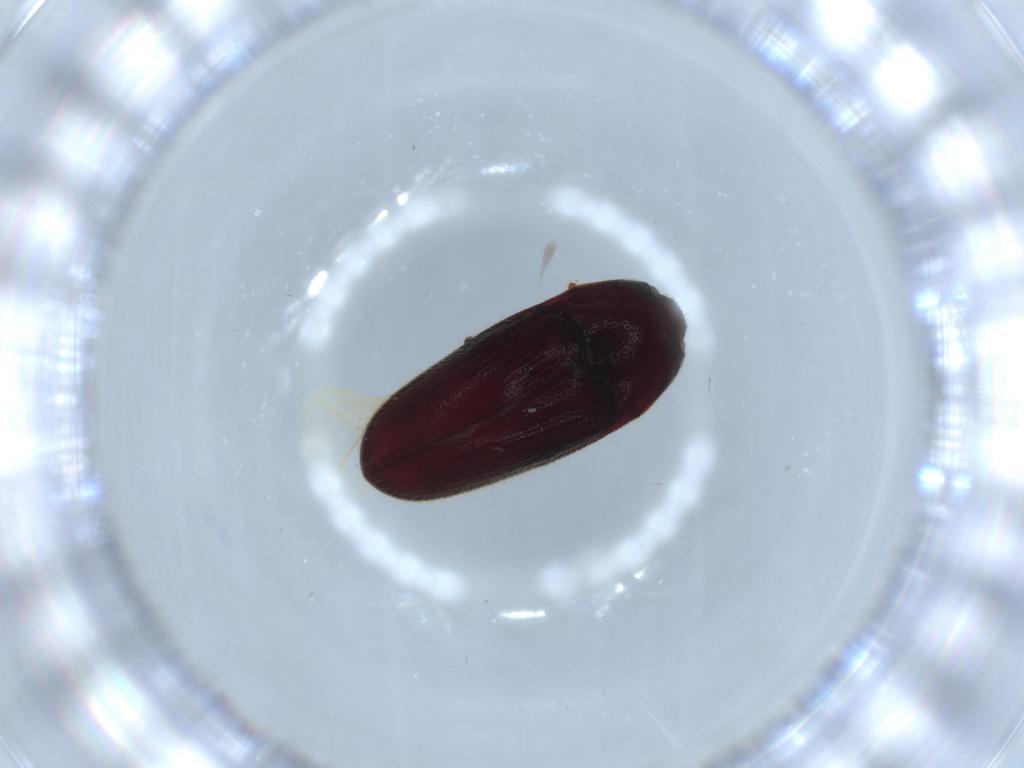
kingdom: Animalia
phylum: Arthropoda
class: Insecta
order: Coleoptera
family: Throscidae
